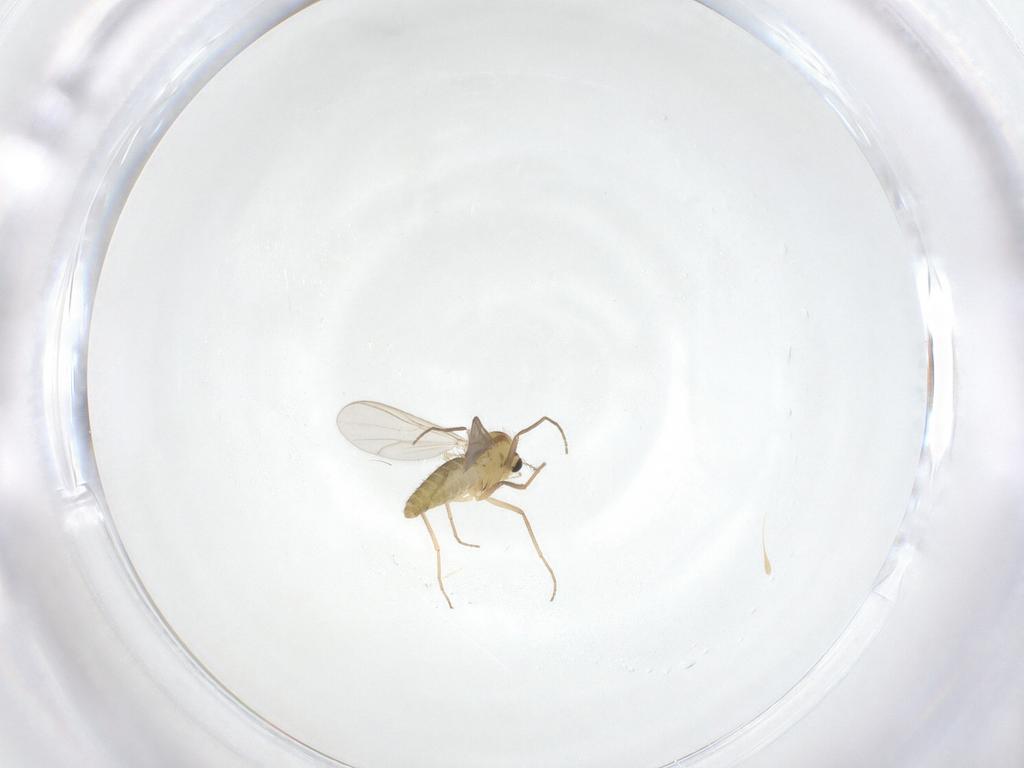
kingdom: Animalia
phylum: Arthropoda
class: Insecta
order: Diptera
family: Chironomidae
